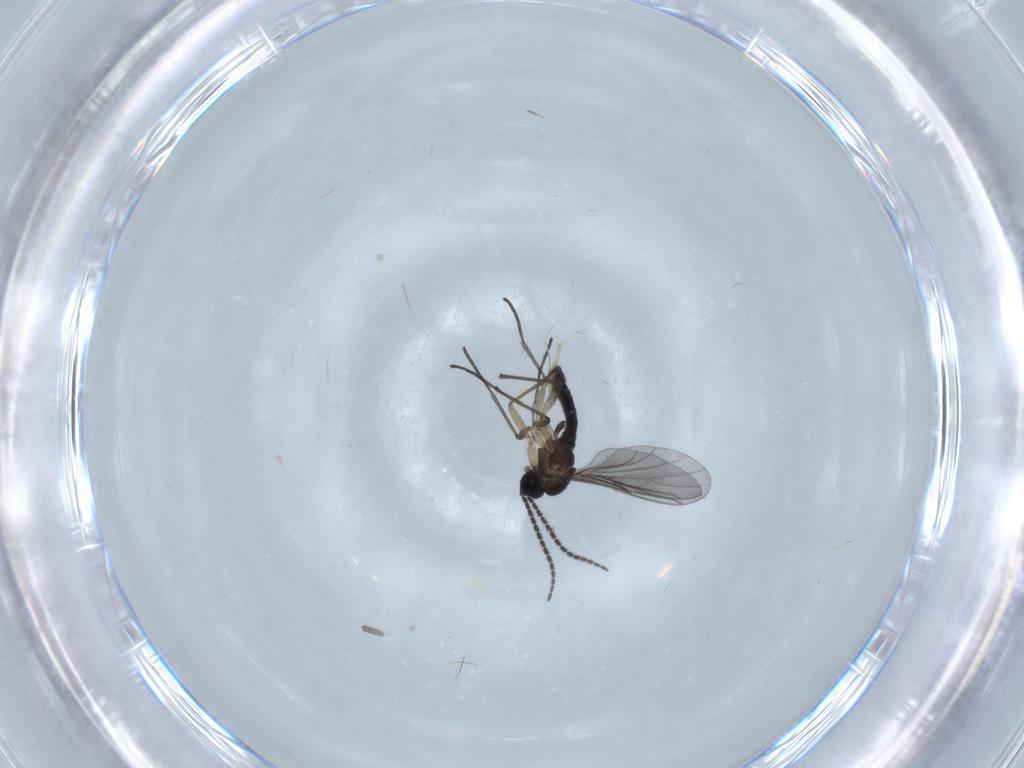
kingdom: Animalia
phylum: Arthropoda
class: Insecta
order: Diptera
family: Sciaridae
